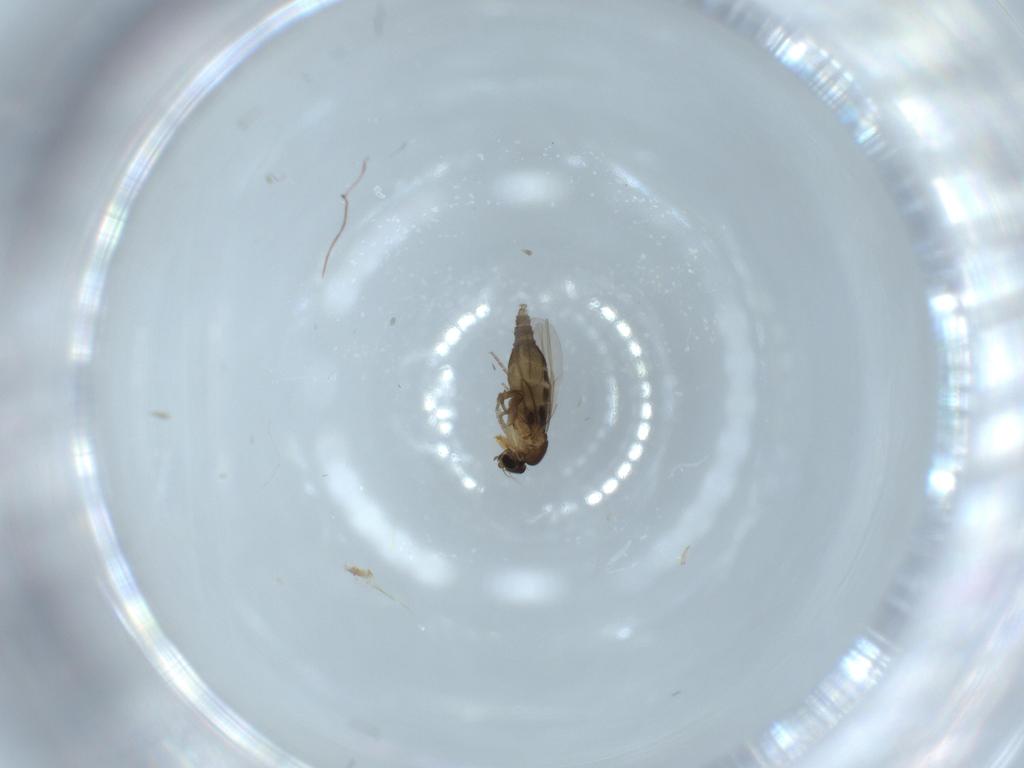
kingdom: Animalia
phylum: Arthropoda
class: Insecta
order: Diptera
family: Phoridae
